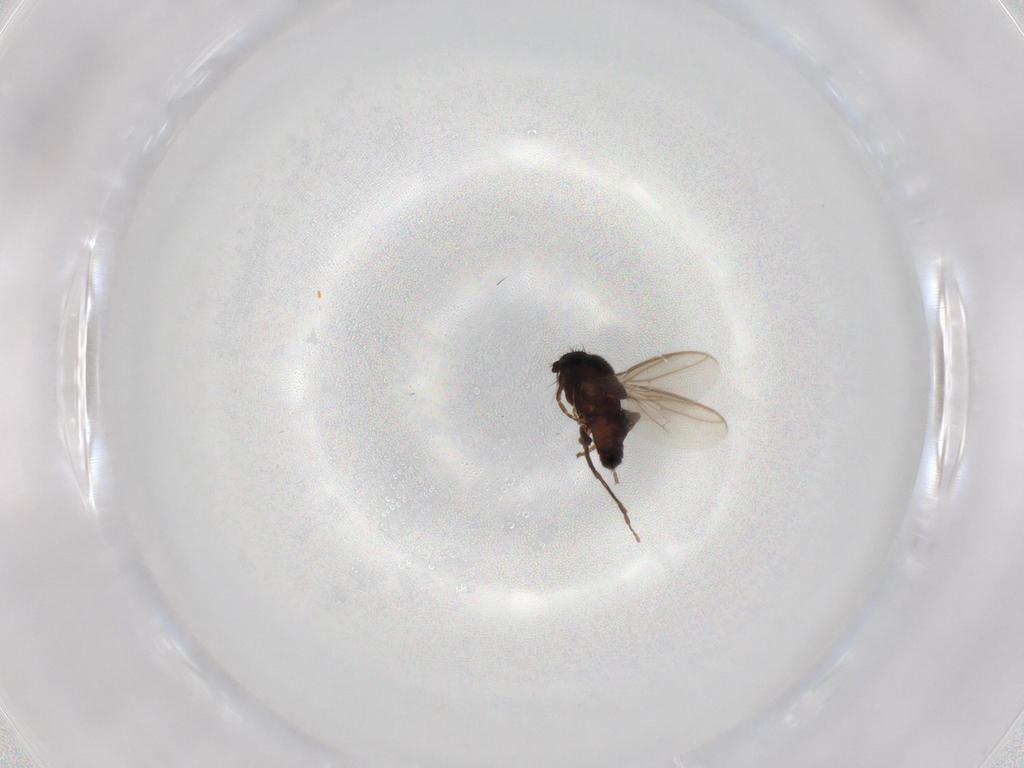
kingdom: Animalia
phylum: Arthropoda
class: Insecta
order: Diptera
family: Sphaeroceridae
